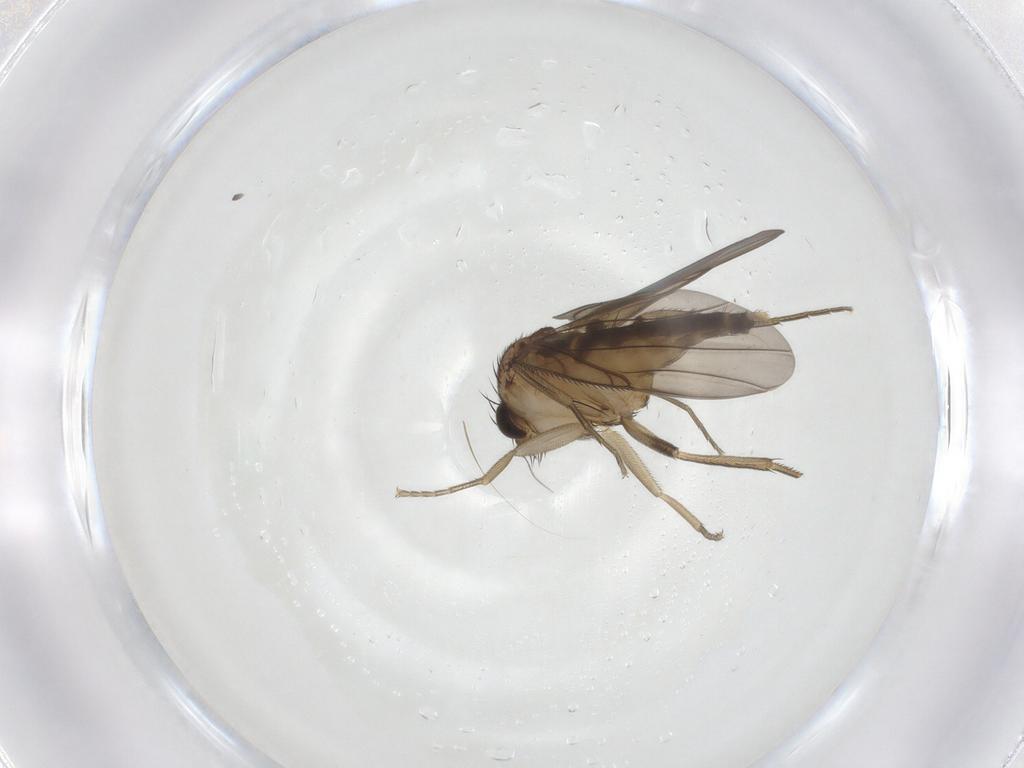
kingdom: Animalia
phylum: Arthropoda
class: Insecta
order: Diptera
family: Phoridae
